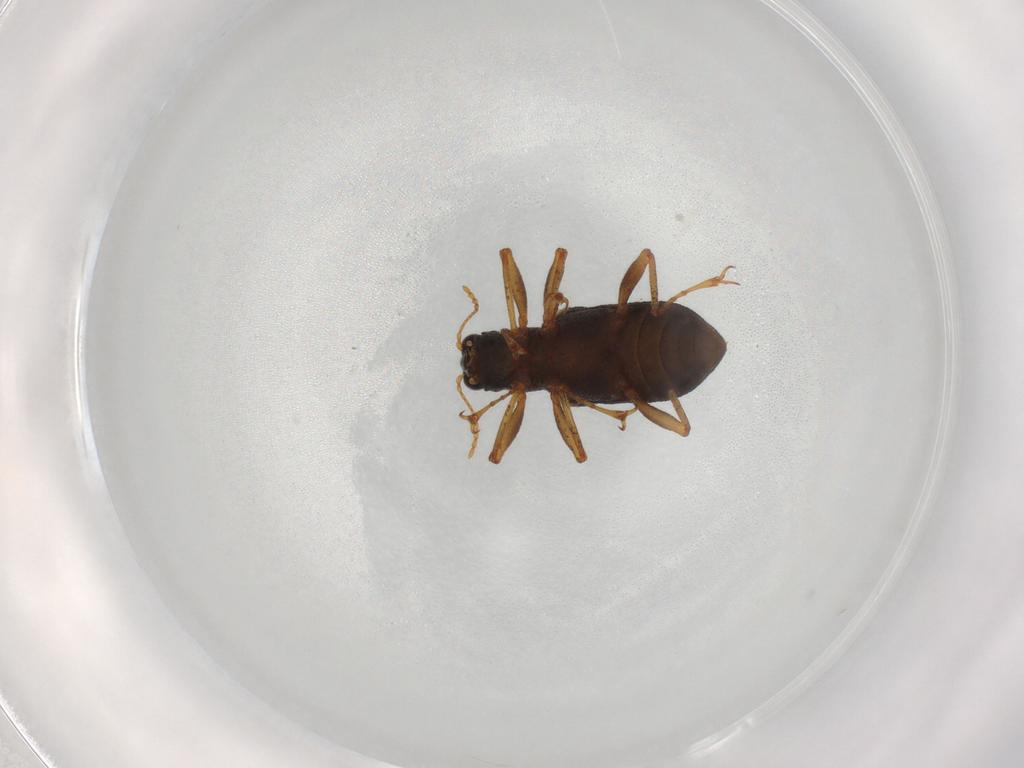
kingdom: Animalia
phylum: Arthropoda
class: Insecta
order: Coleoptera
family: Elmidae
